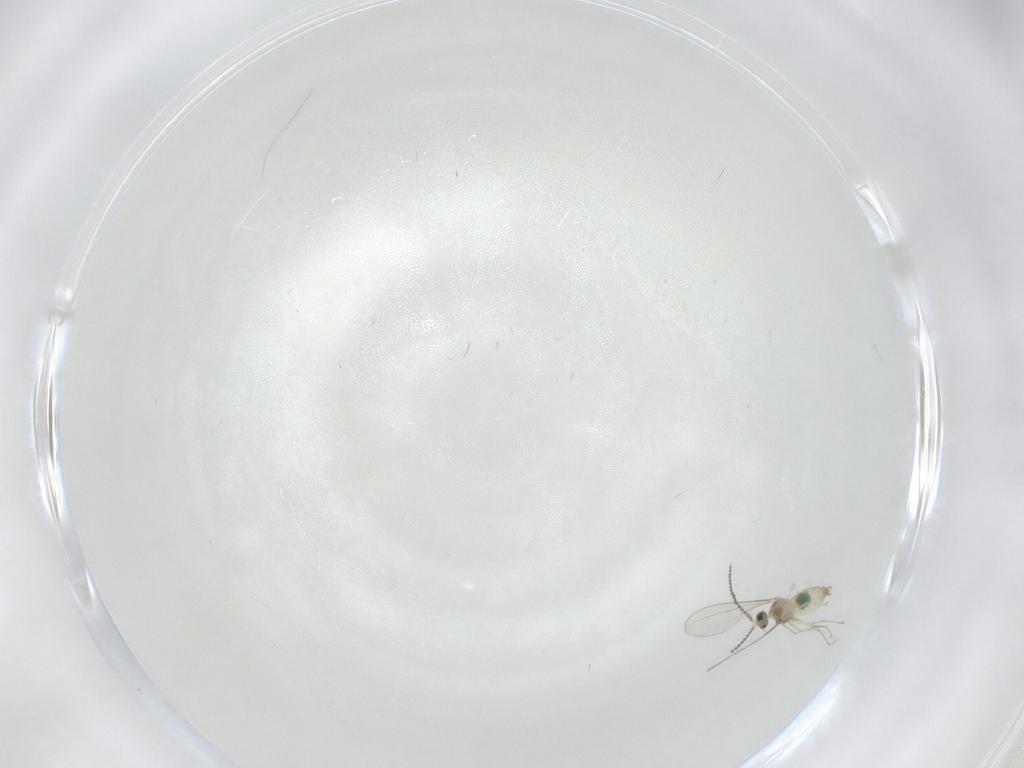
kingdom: Animalia
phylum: Arthropoda
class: Insecta
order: Diptera
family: Cecidomyiidae
